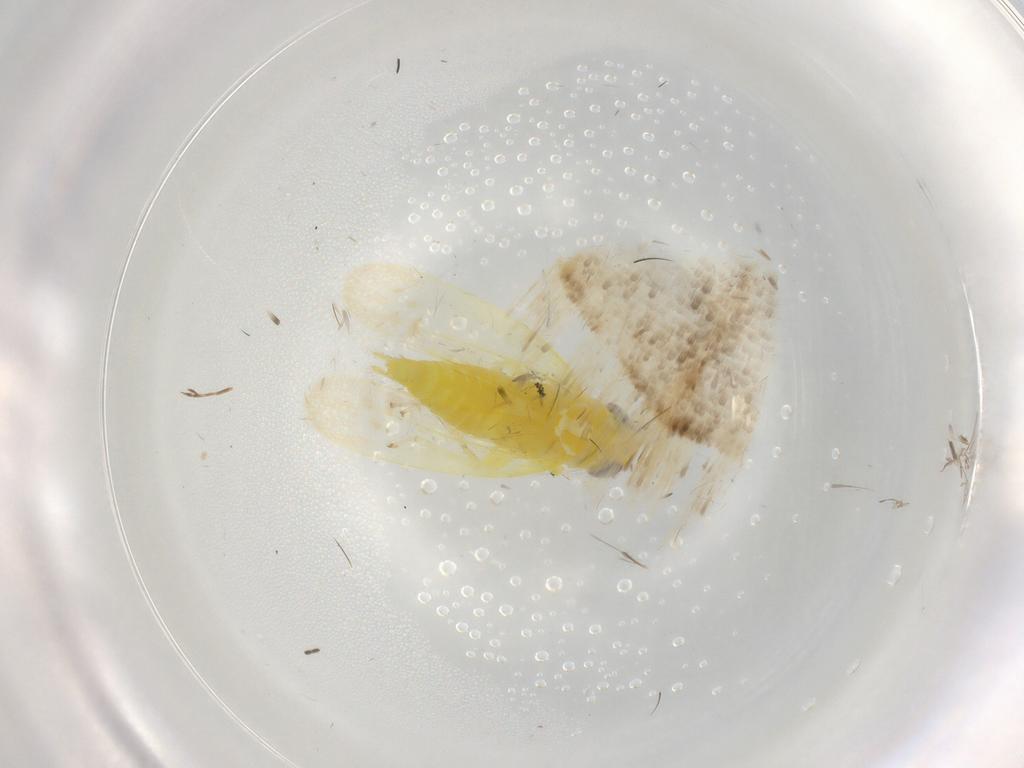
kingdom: Animalia
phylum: Arthropoda
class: Insecta
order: Hemiptera
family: Cicadellidae
